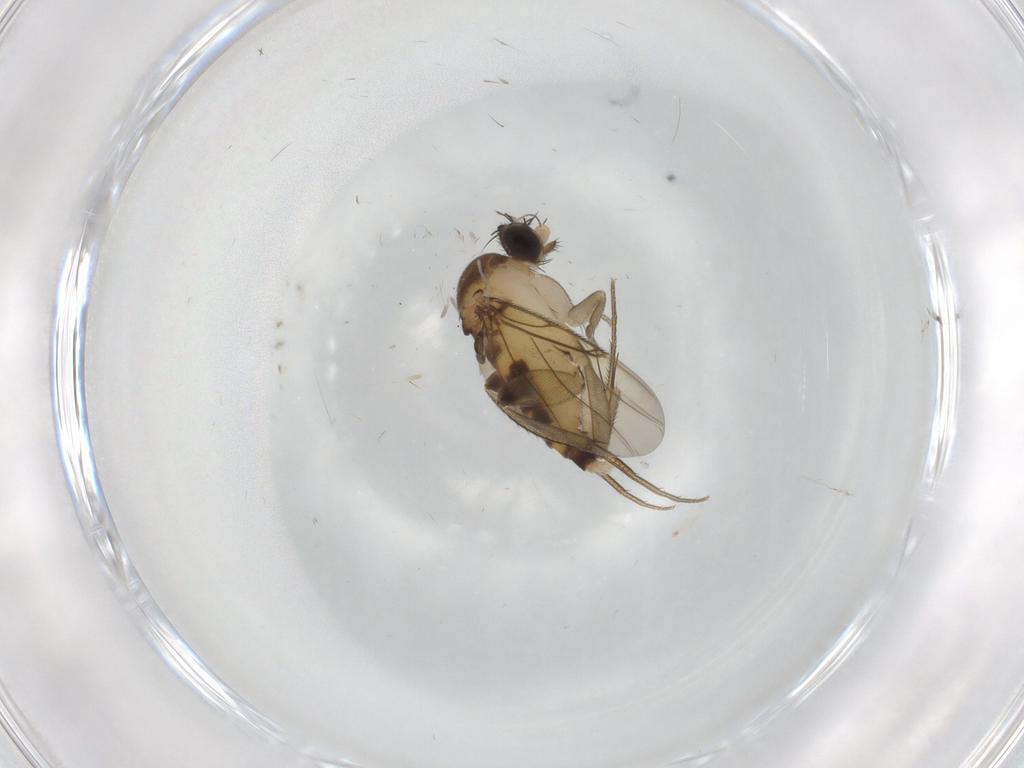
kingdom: Animalia
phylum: Arthropoda
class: Insecta
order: Diptera
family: Phoridae
